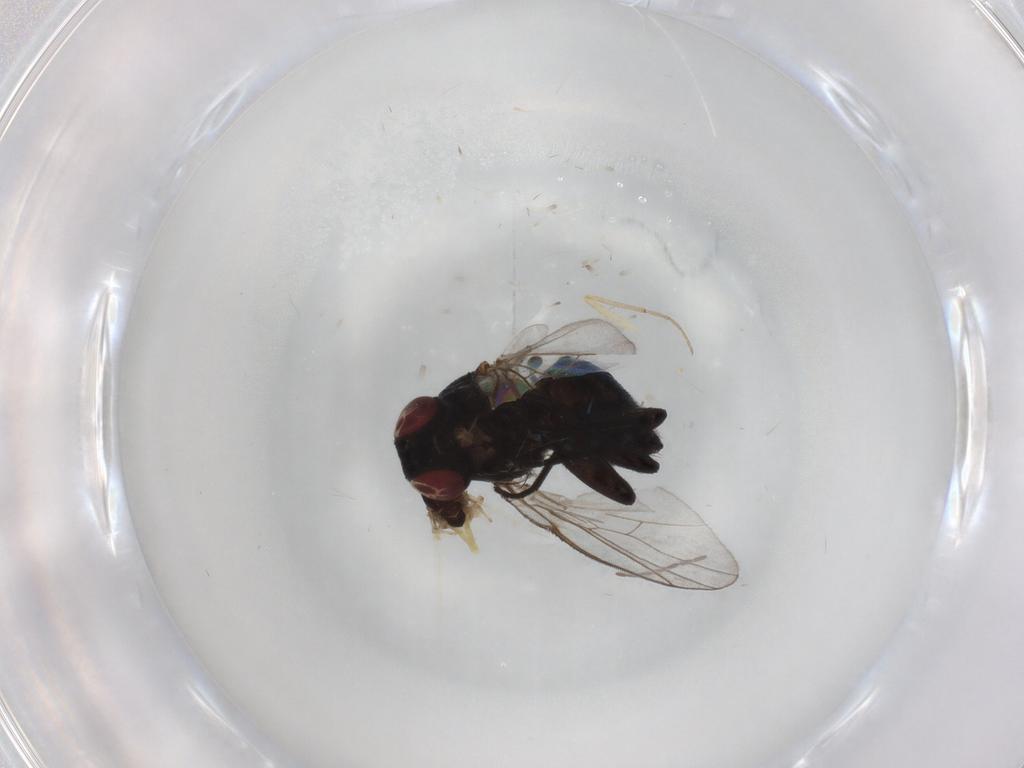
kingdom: Animalia
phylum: Arthropoda
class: Insecta
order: Diptera
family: Chironomidae
